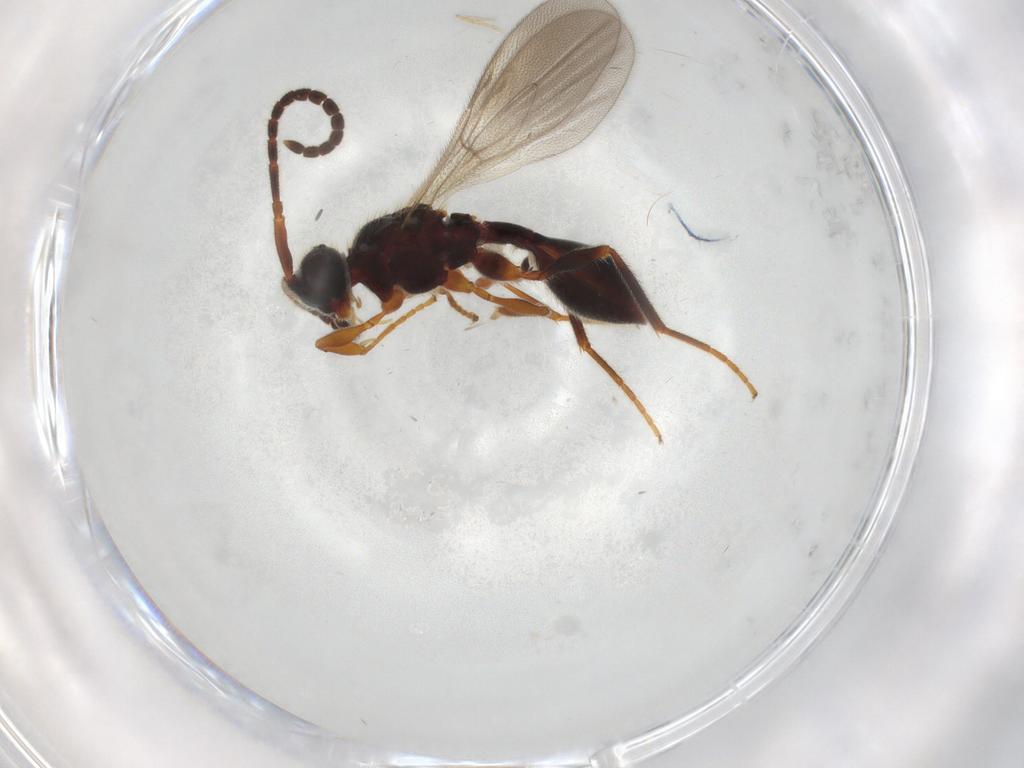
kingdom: Animalia
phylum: Arthropoda
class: Insecta
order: Hymenoptera
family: Diapriidae
